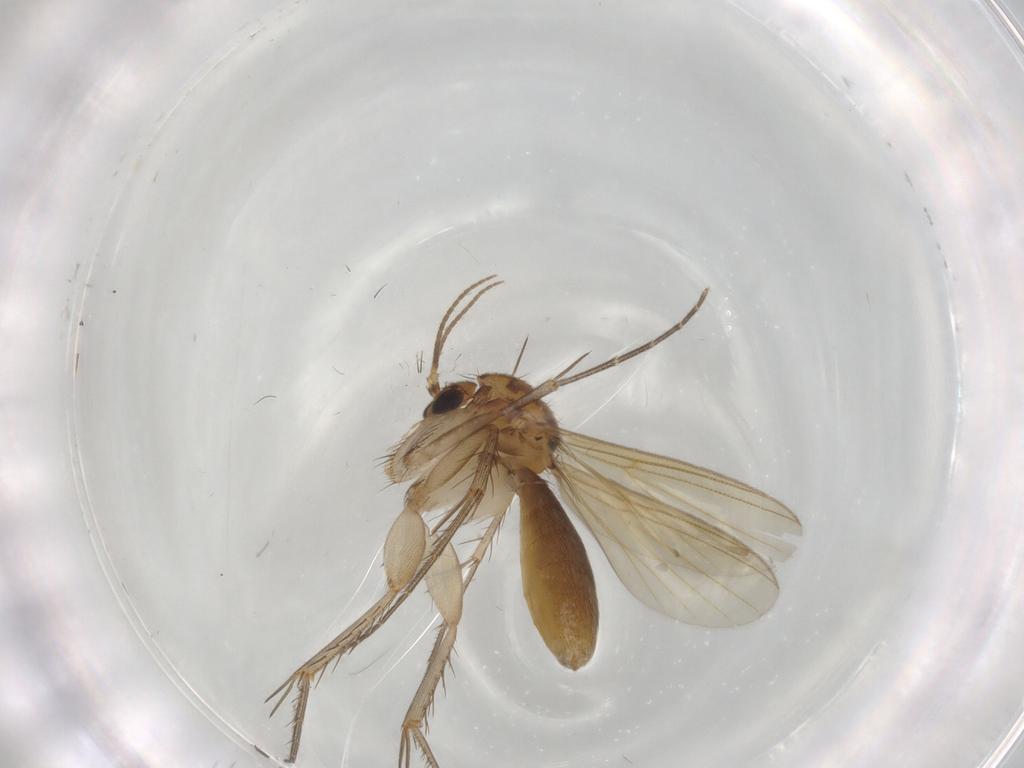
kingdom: Animalia
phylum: Arthropoda
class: Insecta
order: Diptera
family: Mycetophilidae
